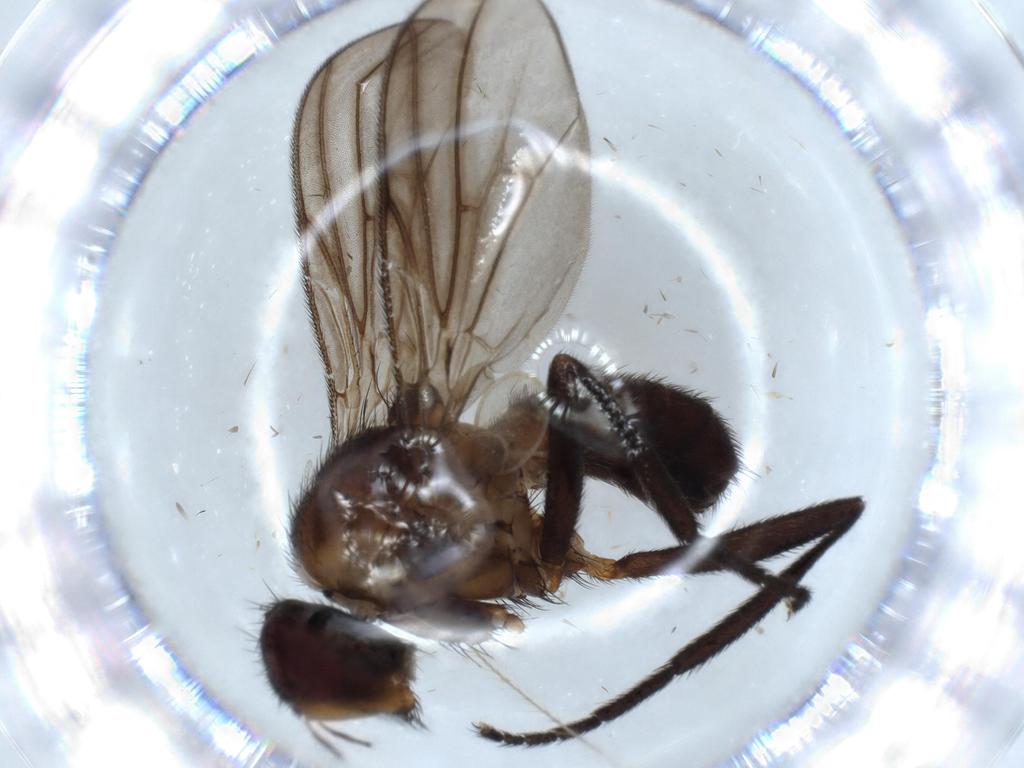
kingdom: Animalia
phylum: Arthropoda
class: Insecta
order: Diptera
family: Calliphoridae
